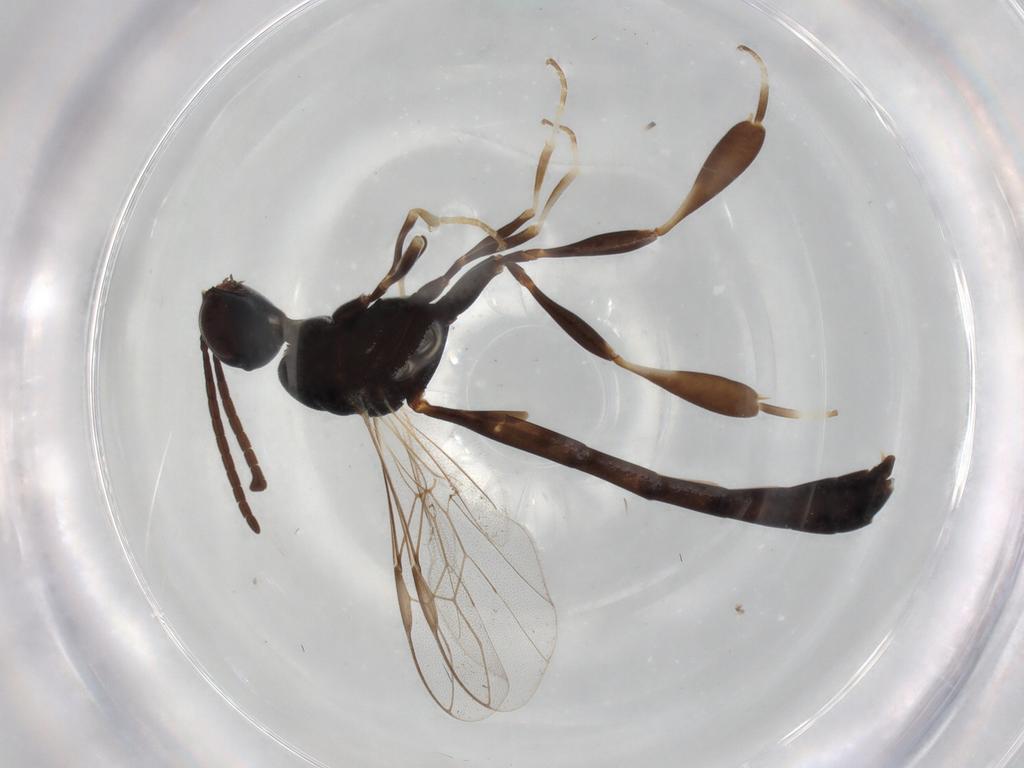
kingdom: Animalia
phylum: Arthropoda
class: Insecta
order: Hymenoptera
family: Gasteruptiidae
